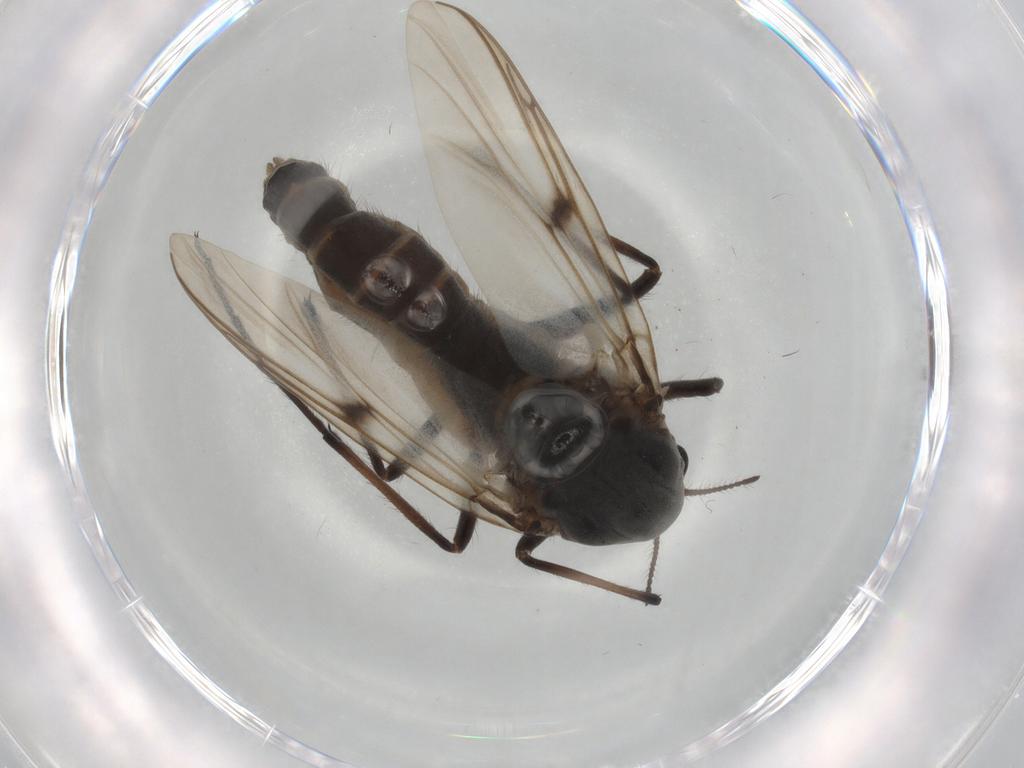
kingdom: Animalia
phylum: Arthropoda
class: Insecta
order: Diptera
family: Chironomidae
